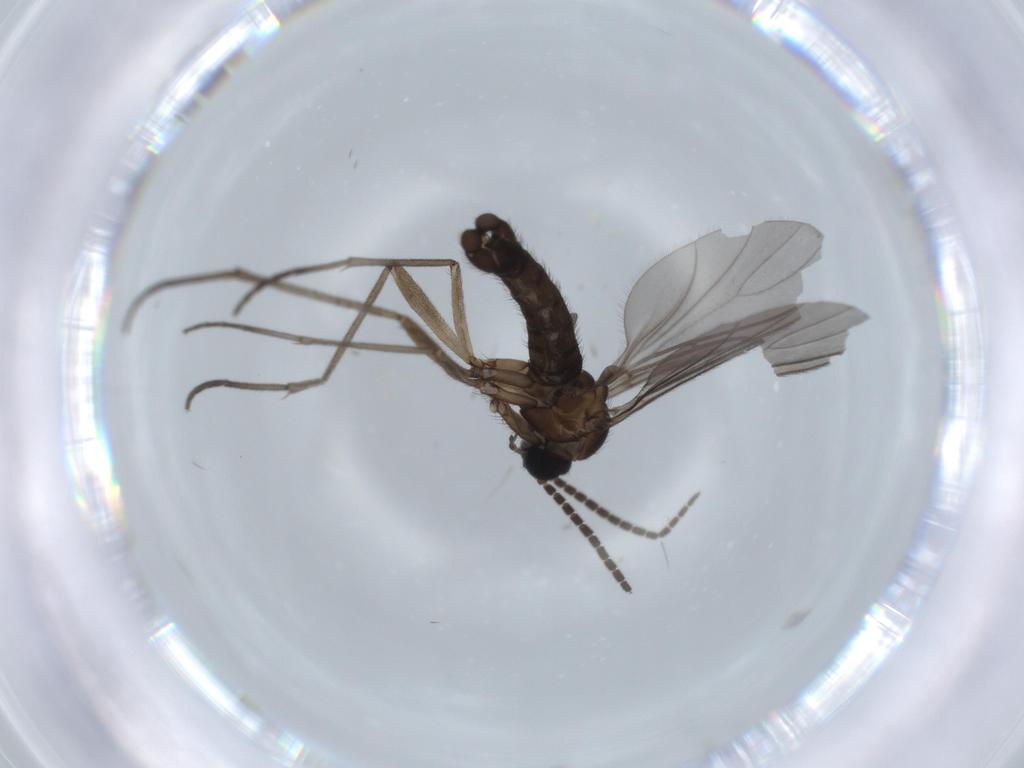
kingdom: Animalia
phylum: Arthropoda
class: Insecta
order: Diptera
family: Sciaridae
